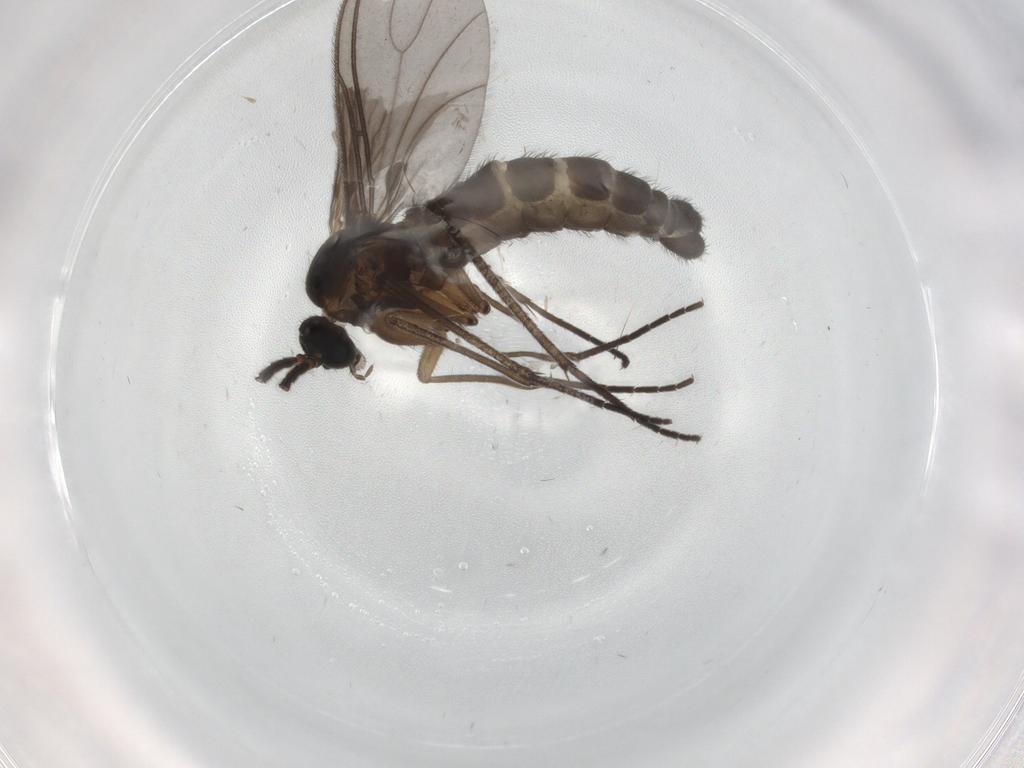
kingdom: Animalia
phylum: Arthropoda
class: Insecta
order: Diptera
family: Sciaridae
